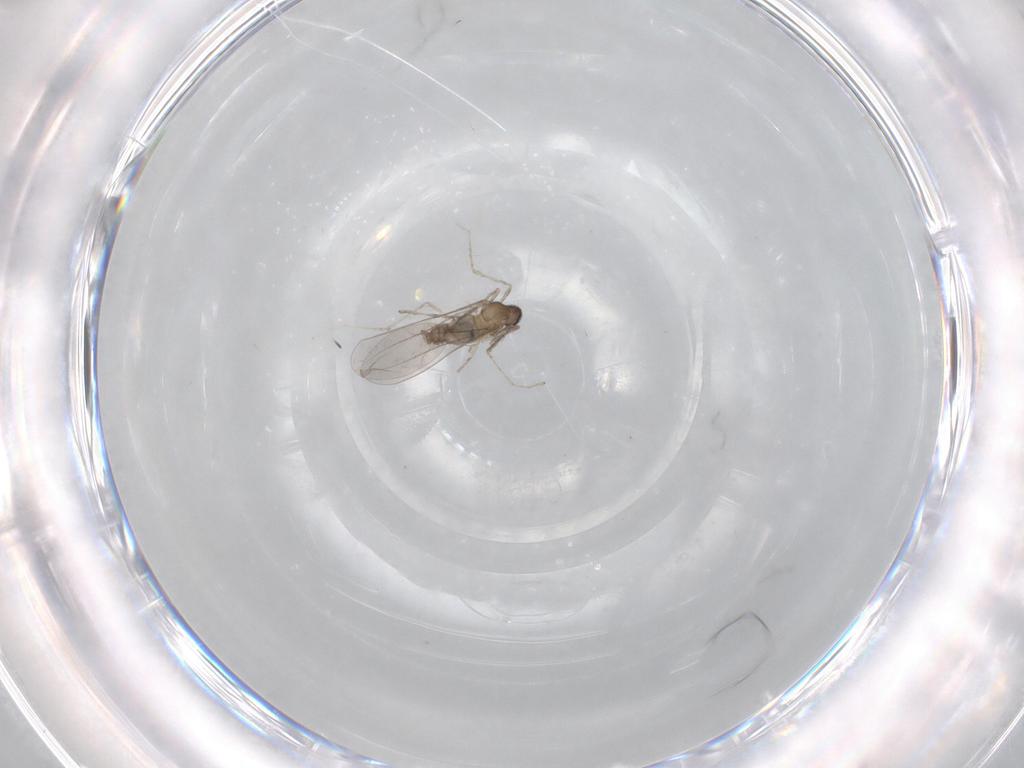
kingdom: Animalia
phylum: Arthropoda
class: Insecta
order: Diptera
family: Cecidomyiidae
